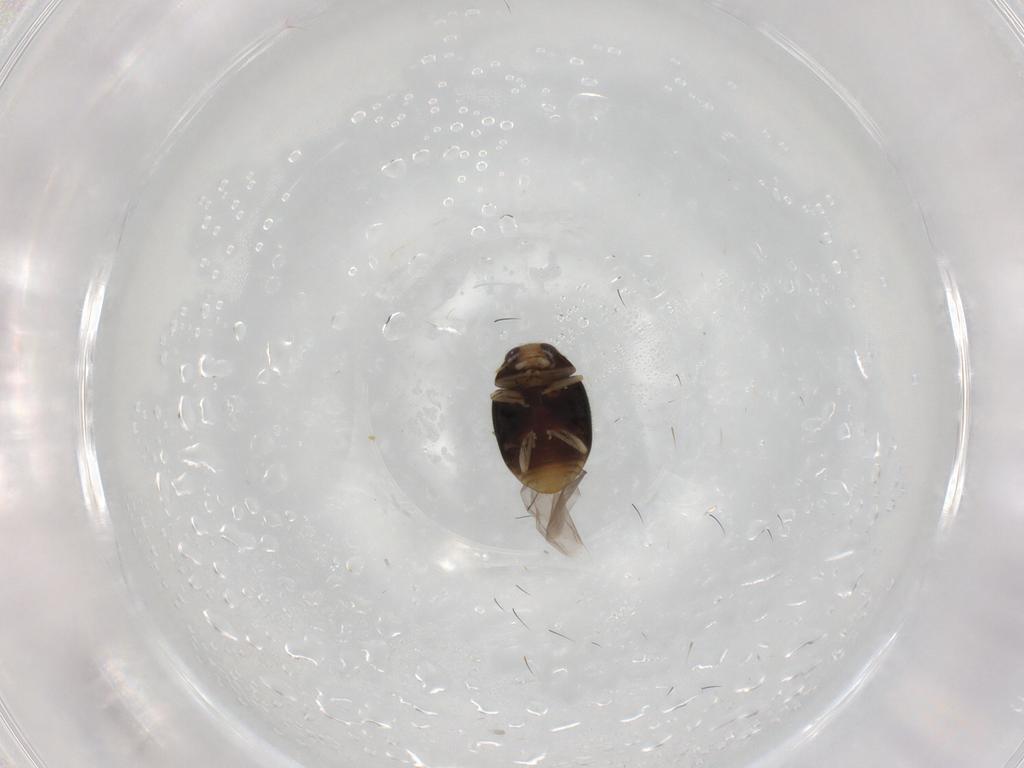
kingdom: Animalia
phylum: Arthropoda
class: Insecta
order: Coleoptera
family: Coccinellidae
